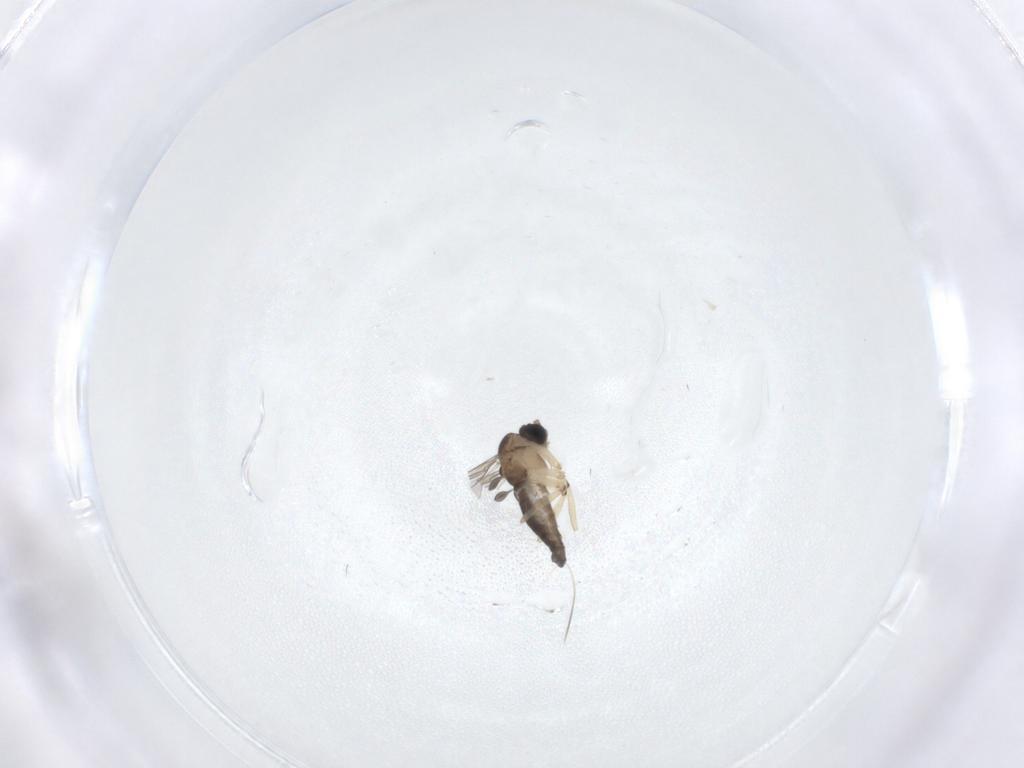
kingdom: Animalia
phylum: Arthropoda
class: Insecta
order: Diptera
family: Sciaridae
